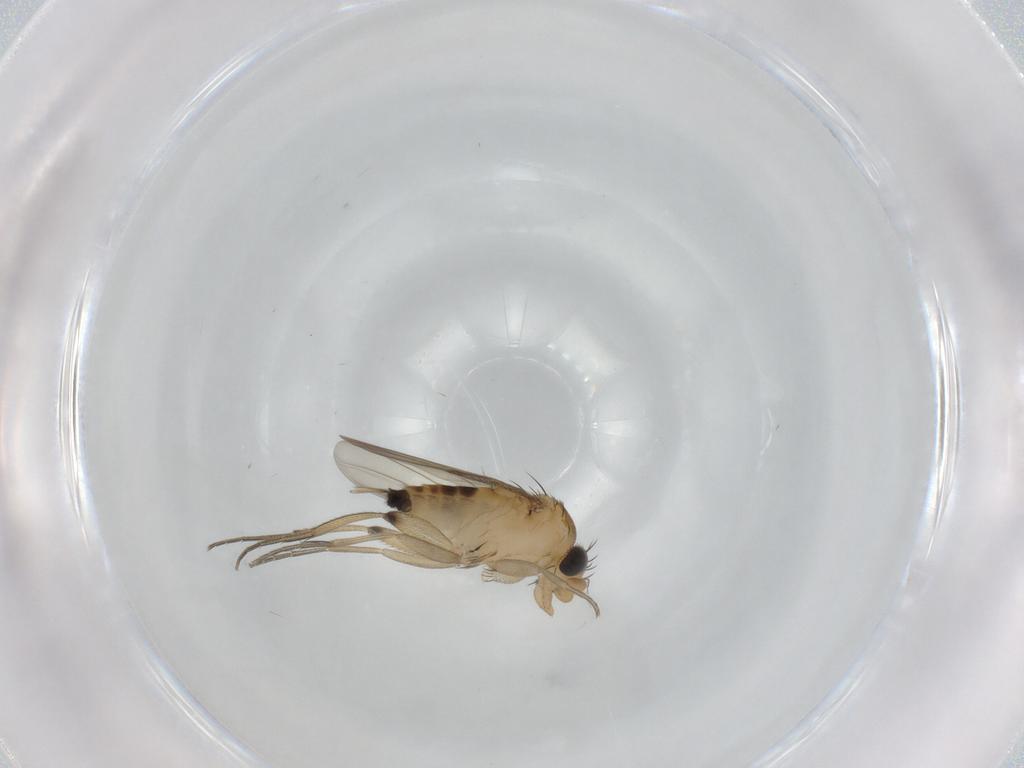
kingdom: Animalia
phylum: Arthropoda
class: Insecta
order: Diptera
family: Phoridae
